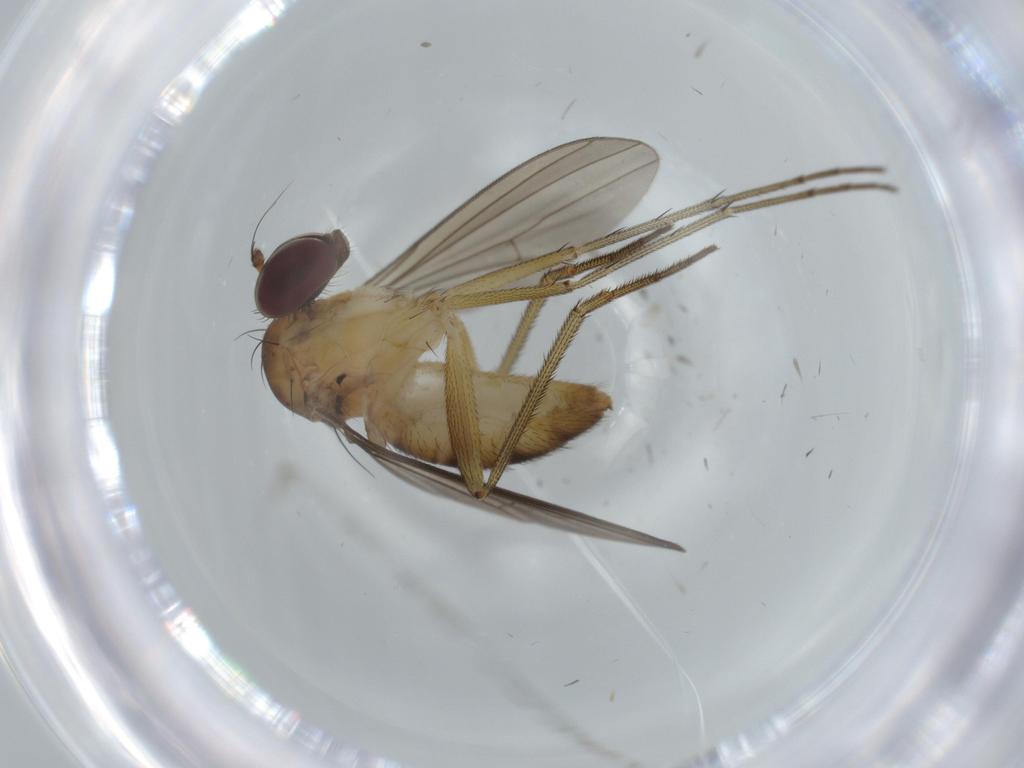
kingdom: Animalia
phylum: Arthropoda
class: Insecta
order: Diptera
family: Dolichopodidae
